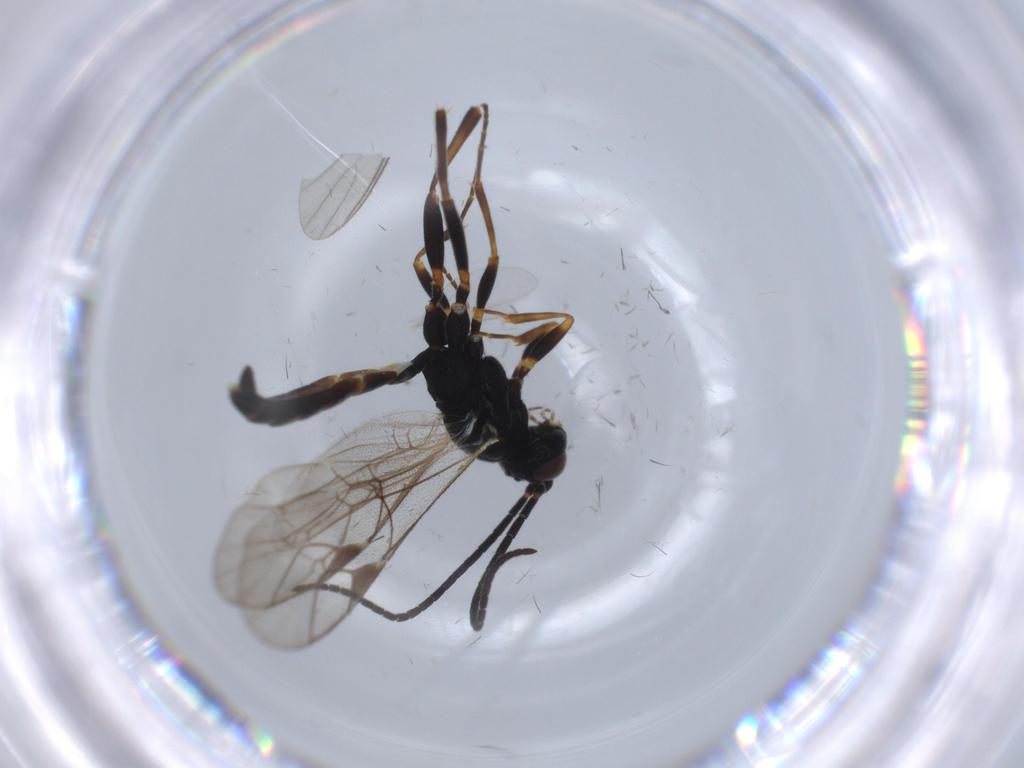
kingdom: Animalia
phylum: Arthropoda
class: Insecta
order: Hymenoptera
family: Ichneumonidae
